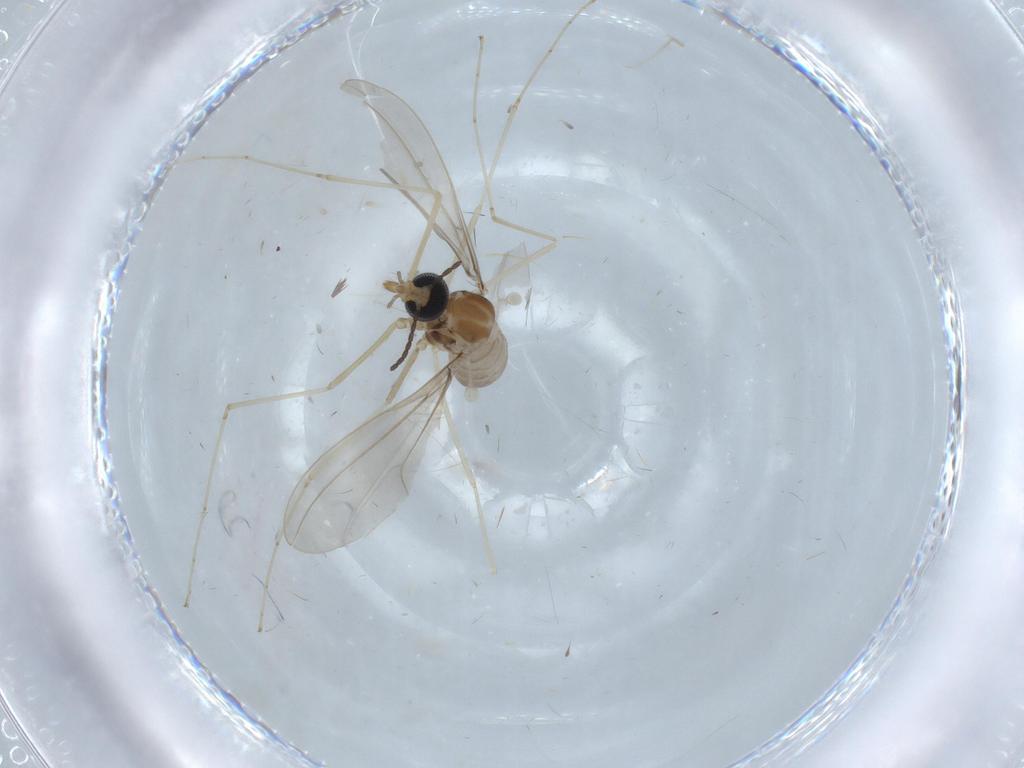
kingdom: Animalia
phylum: Arthropoda
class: Insecta
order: Diptera
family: Cecidomyiidae
